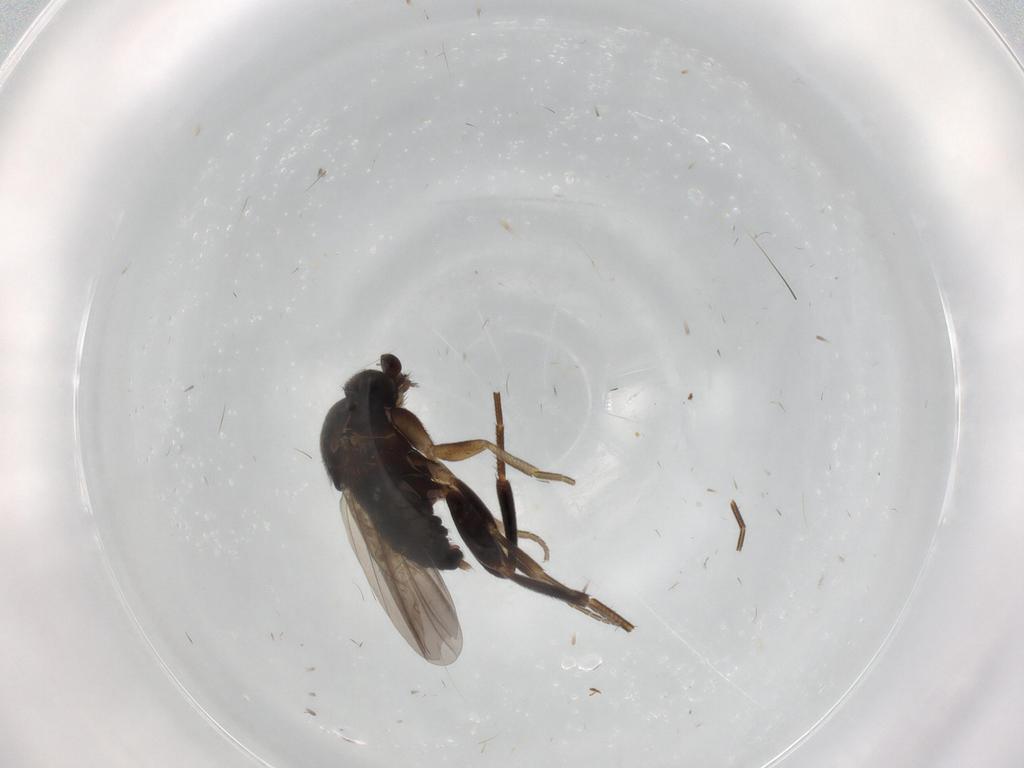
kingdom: Animalia
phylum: Arthropoda
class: Insecta
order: Diptera
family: Phoridae
